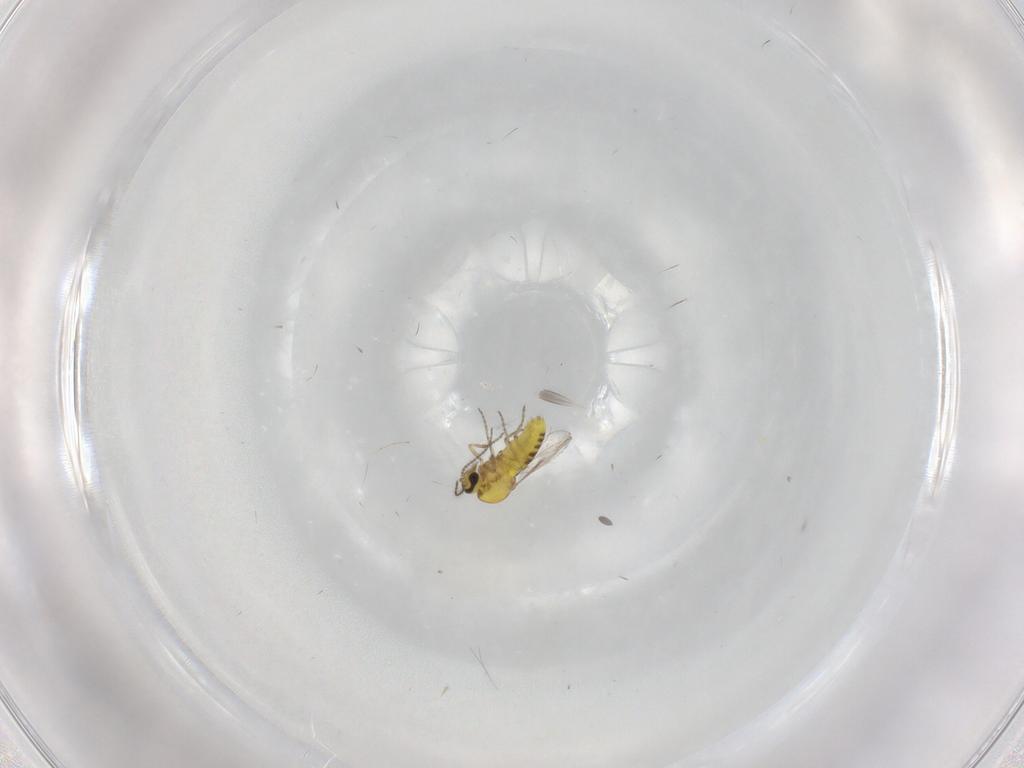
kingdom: Animalia
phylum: Arthropoda
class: Insecta
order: Diptera
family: Ceratopogonidae
